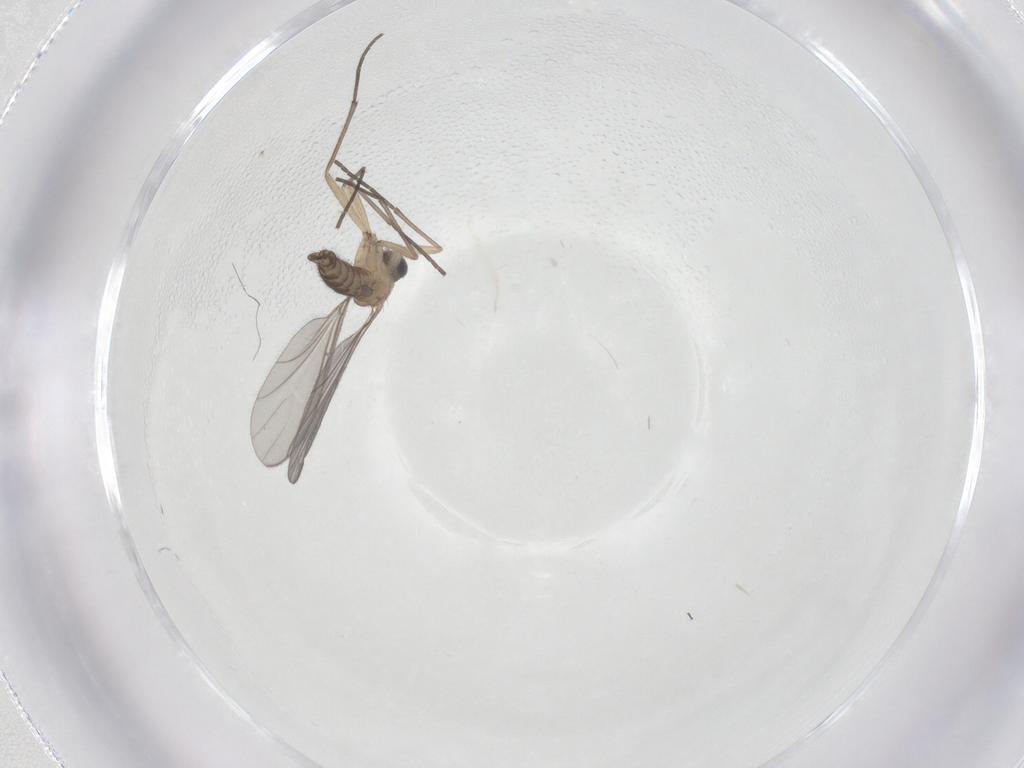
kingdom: Animalia
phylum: Arthropoda
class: Insecta
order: Diptera
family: Sciaridae
